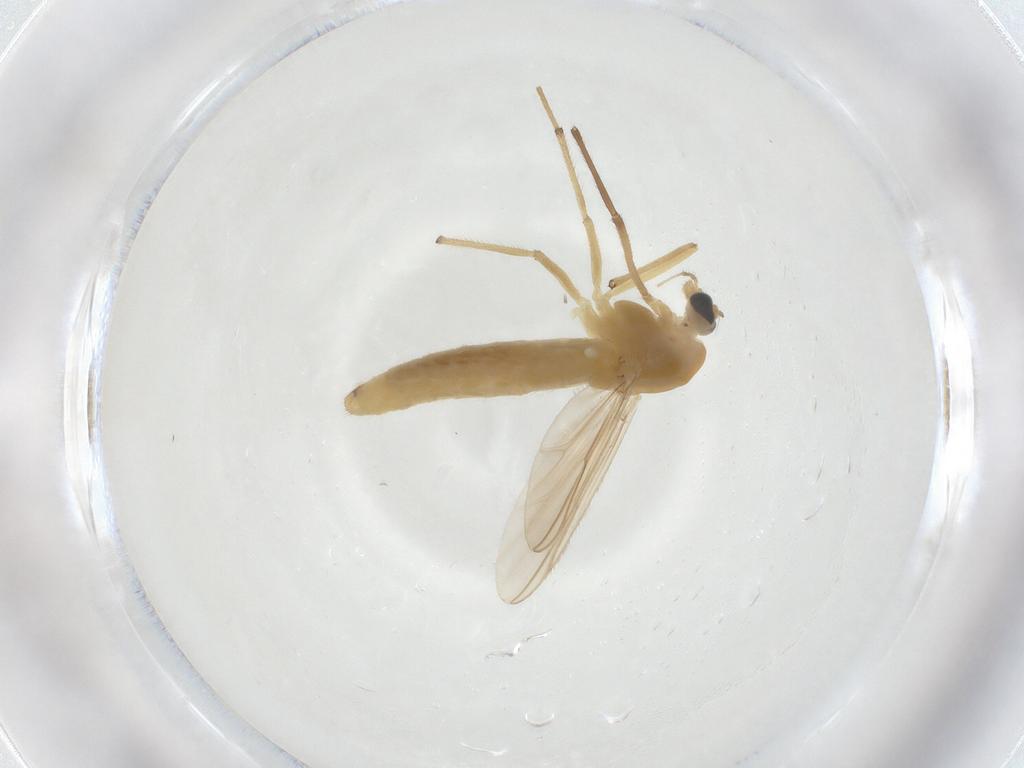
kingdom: Animalia
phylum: Arthropoda
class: Insecta
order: Diptera
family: Chironomidae
